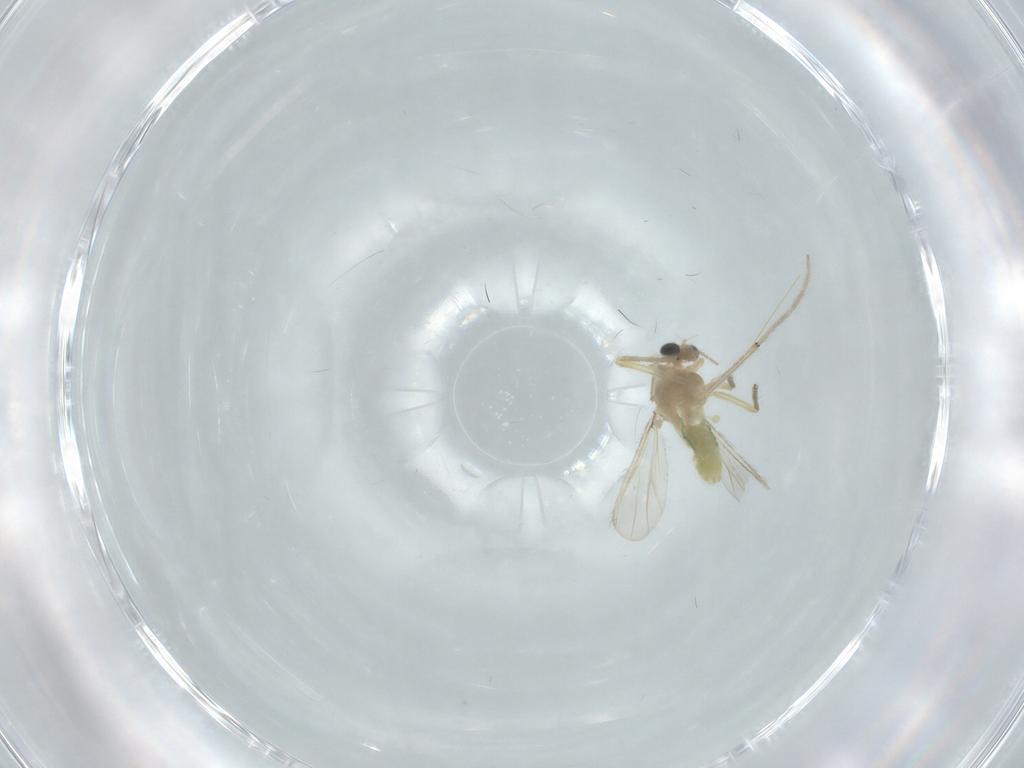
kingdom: Animalia
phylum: Arthropoda
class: Insecta
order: Diptera
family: Chironomidae
